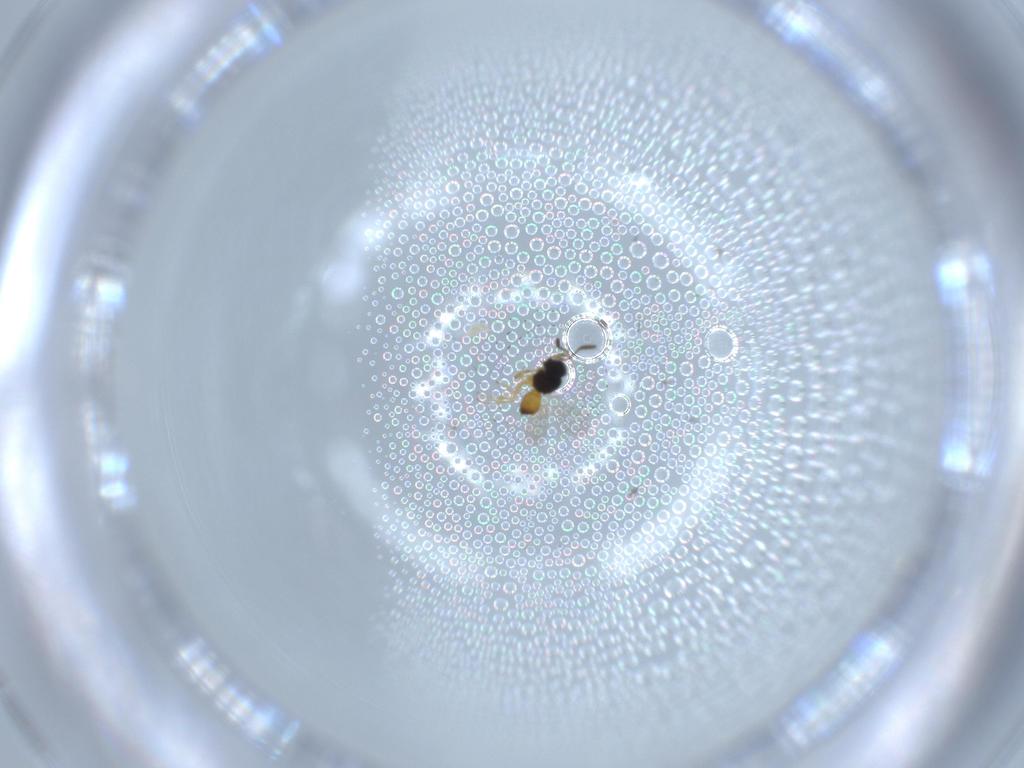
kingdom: Animalia
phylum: Arthropoda
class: Insecta
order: Hymenoptera
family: Scelionidae
